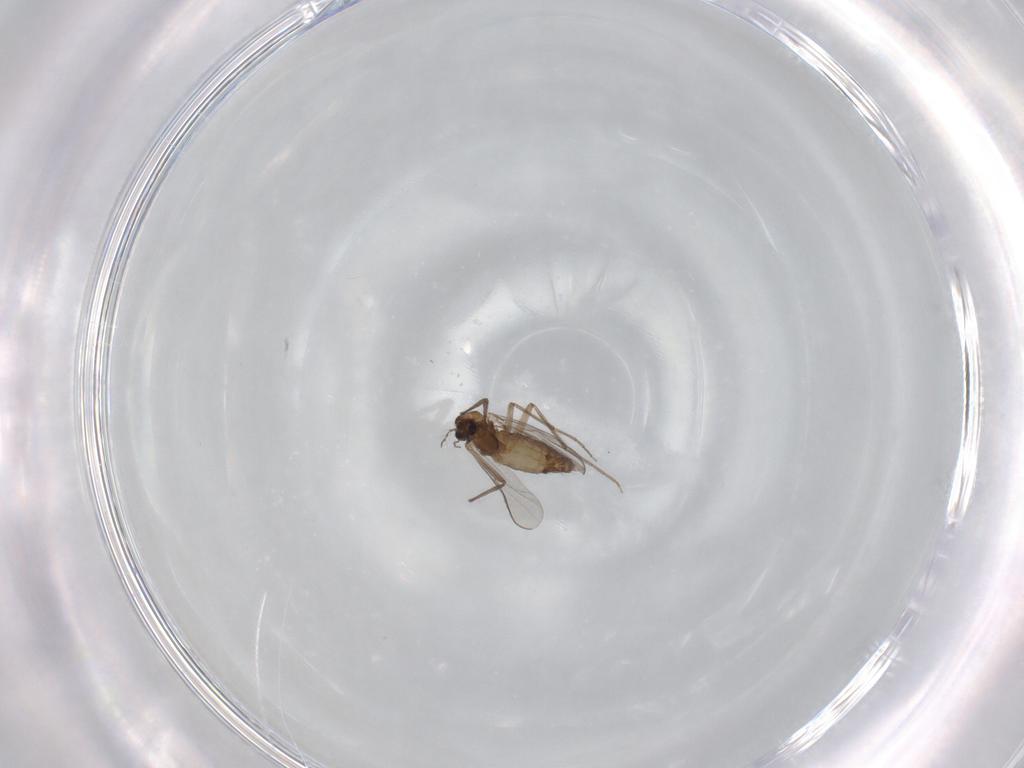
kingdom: Animalia
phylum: Arthropoda
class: Insecta
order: Diptera
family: Chironomidae
